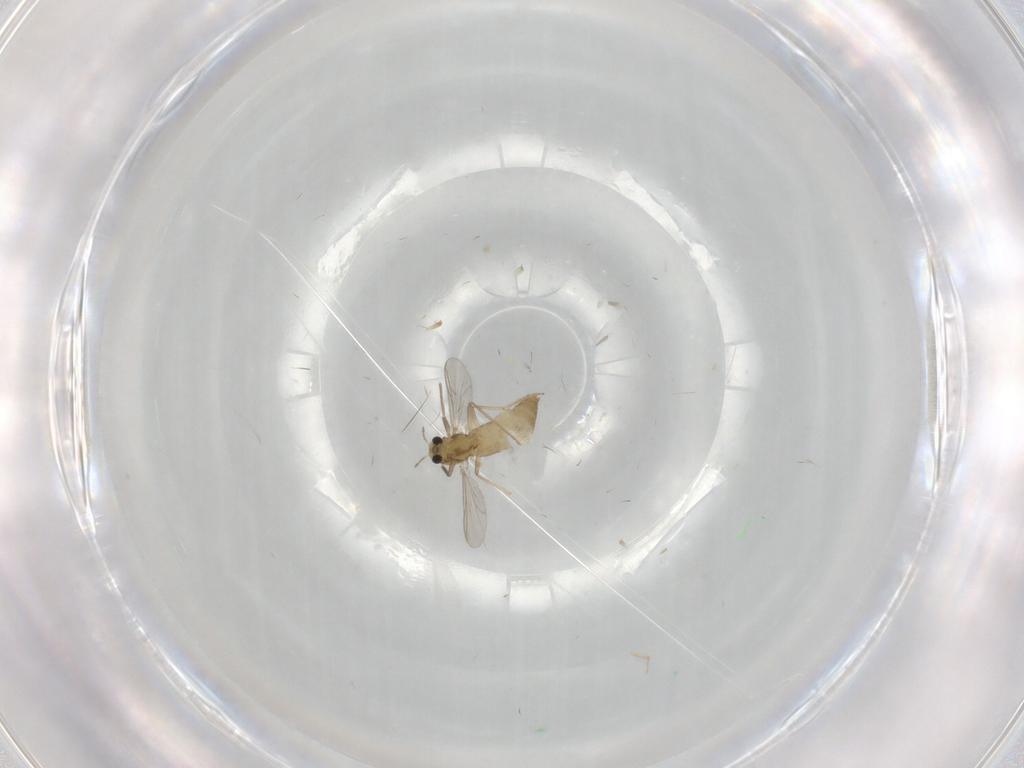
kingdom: Animalia
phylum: Arthropoda
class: Insecta
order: Diptera
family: Chironomidae
